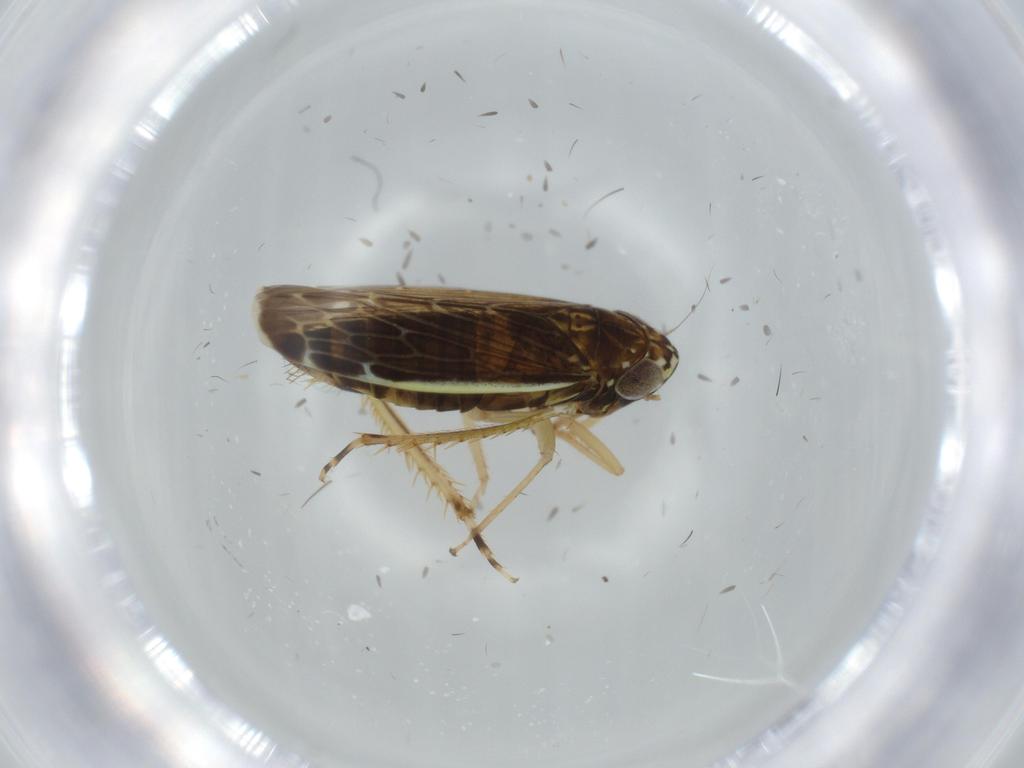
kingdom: Animalia
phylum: Arthropoda
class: Insecta
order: Hemiptera
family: Cicadellidae
